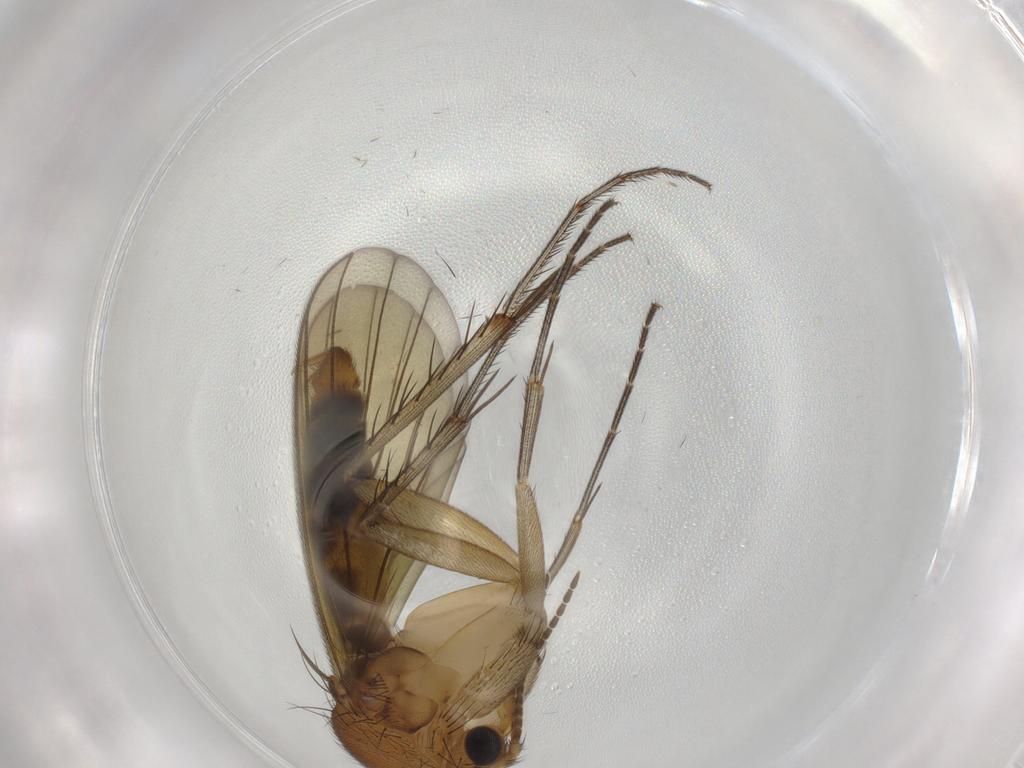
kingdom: Animalia
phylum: Arthropoda
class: Insecta
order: Diptera
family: Mycetophilidae
